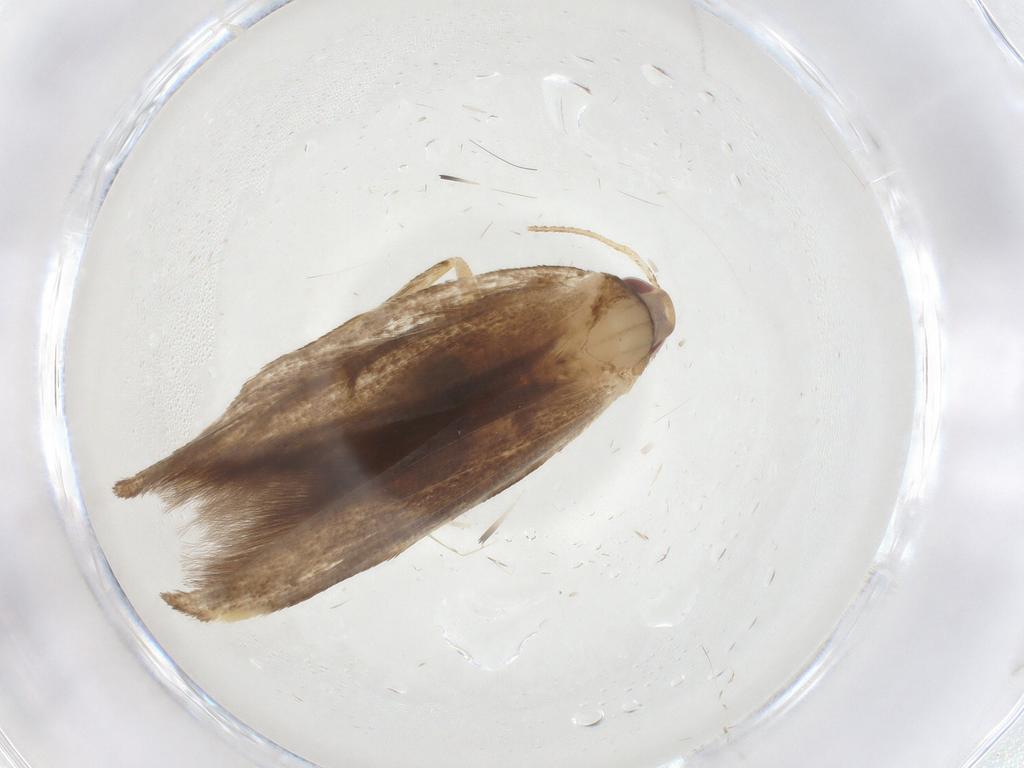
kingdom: Animalia
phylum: Arthropoda
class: Insecta
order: Lepidoptera
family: Cosmopterigidae
